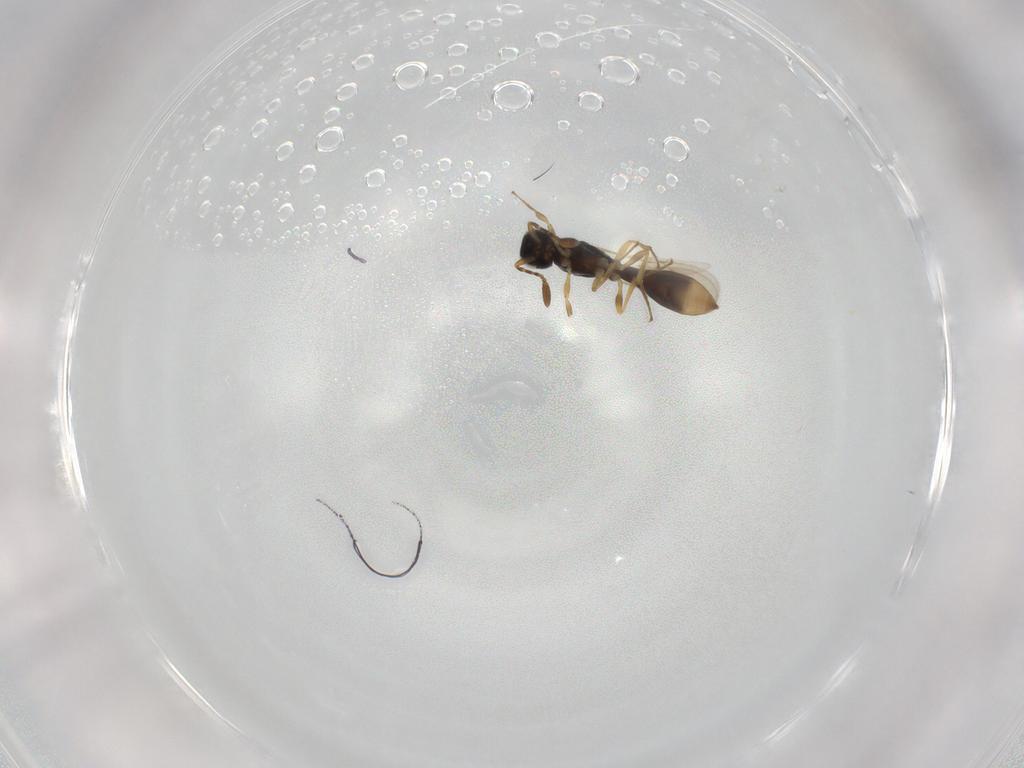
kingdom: Animalia
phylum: Arthropoda
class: Insecta
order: Hymenoptera
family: Scelionidae
